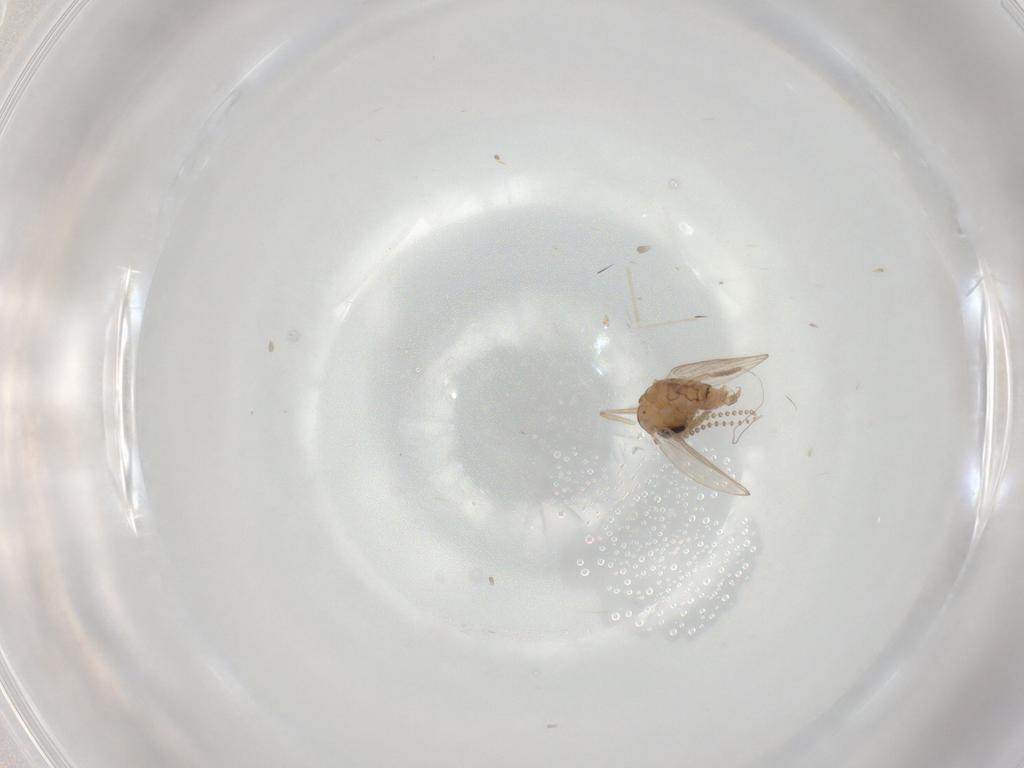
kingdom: Animalia
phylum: Arthropoda
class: Insecta
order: Diptera
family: Psychodidae
